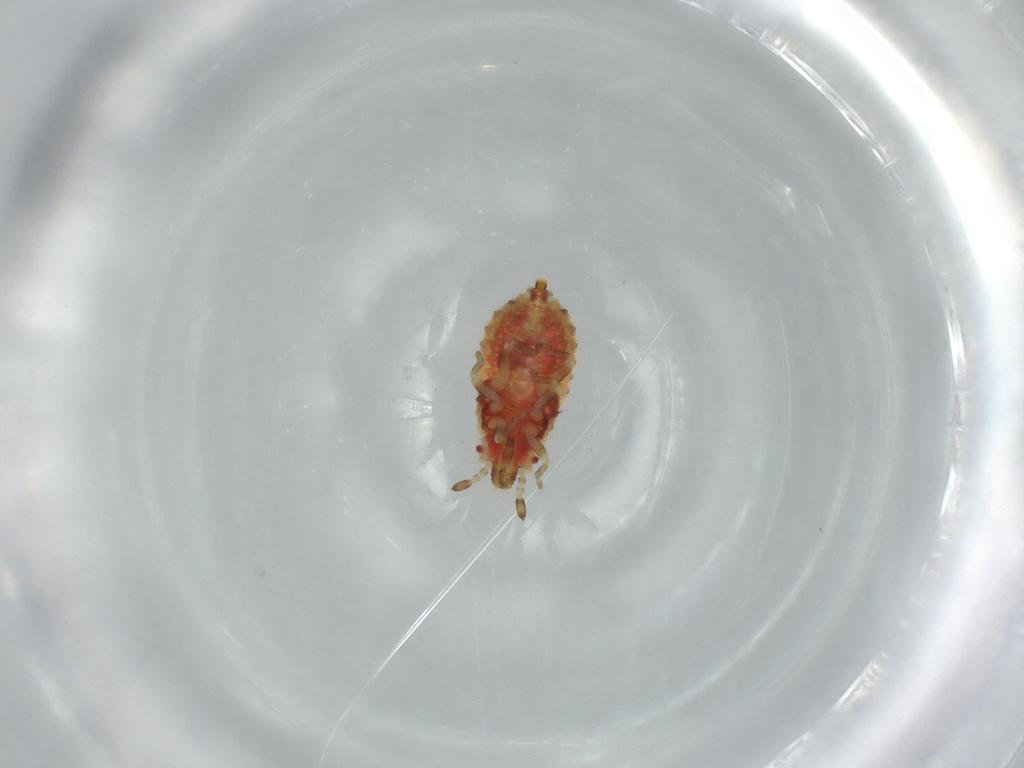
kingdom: Animalia
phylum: Arthropoda
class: Insecta
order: Hemiptera
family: Aradidae
